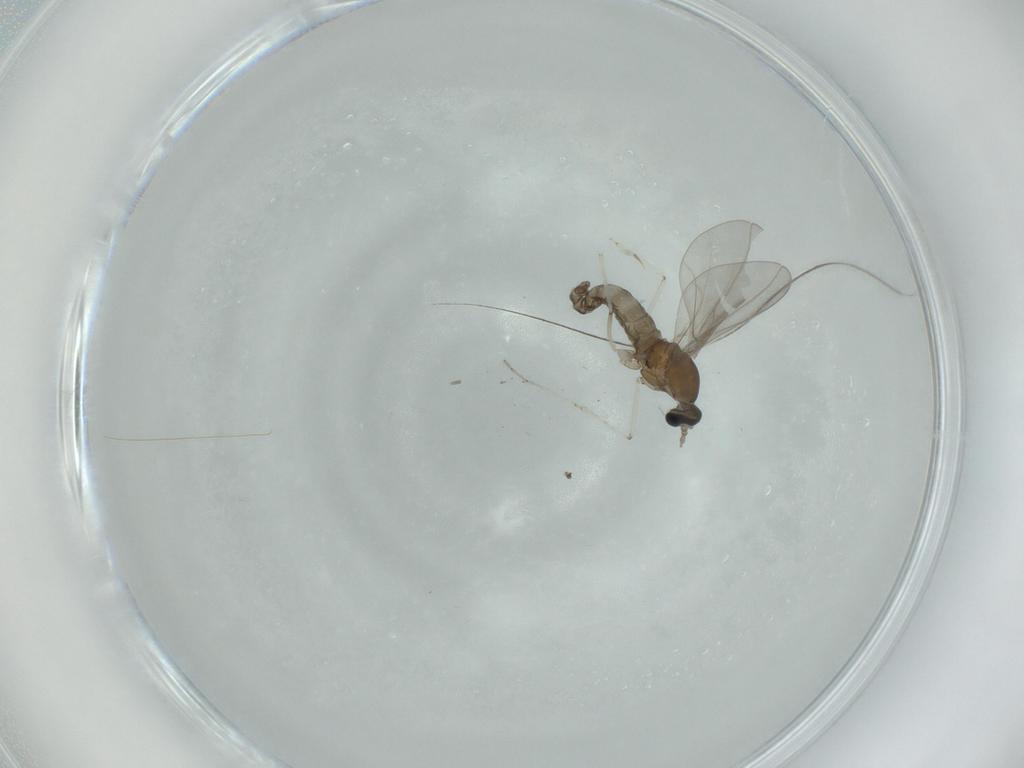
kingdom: Animalia
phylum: Arthropoda
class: Insecta
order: Diptera
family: Cecidomyiidae
